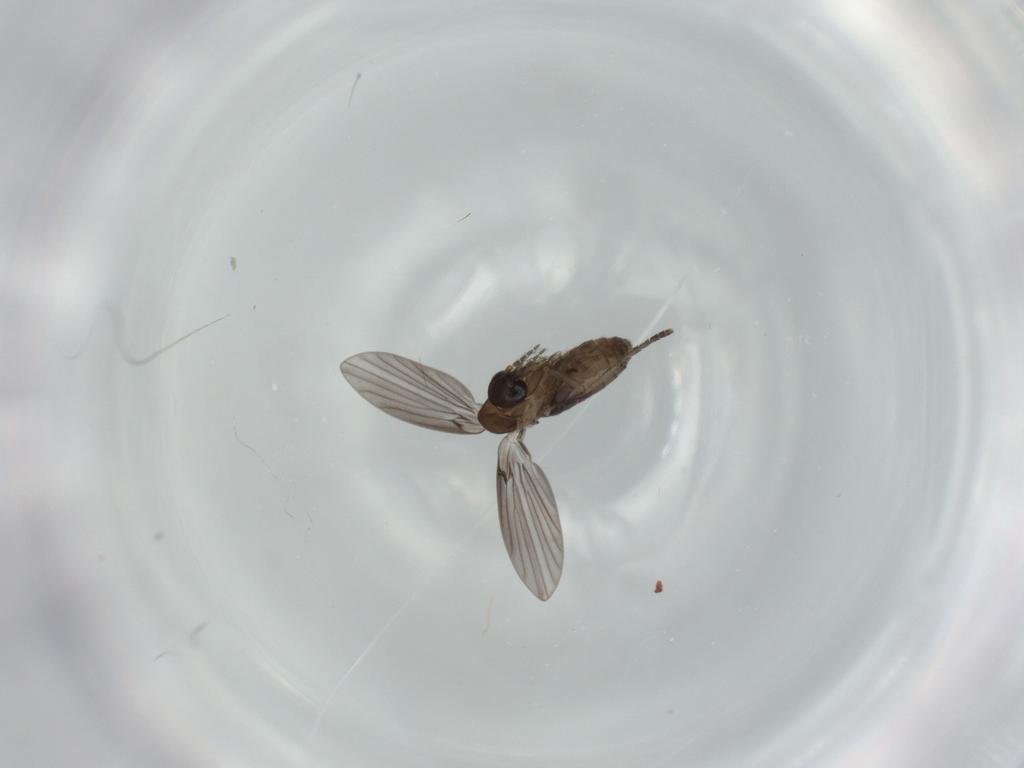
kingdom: Animalia
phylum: Arthropoda
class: Insecta
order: Diptera
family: Psychodidae
